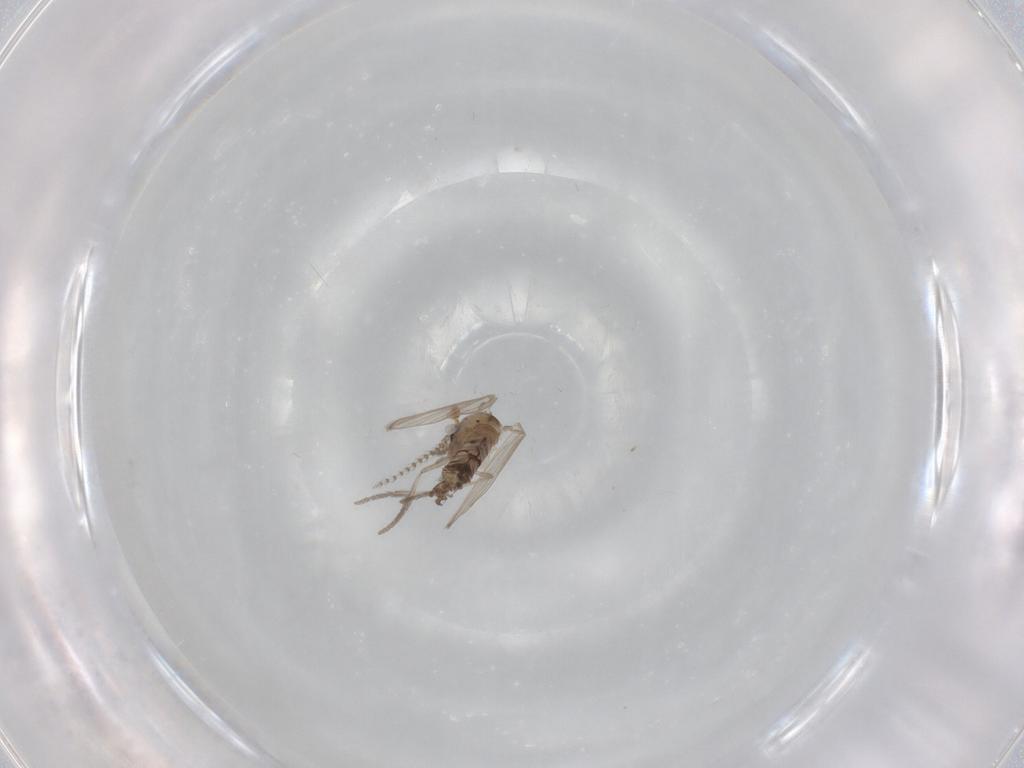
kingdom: Animalia
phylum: Arthropoda
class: Insecta
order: Diptera
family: Psychodidae
